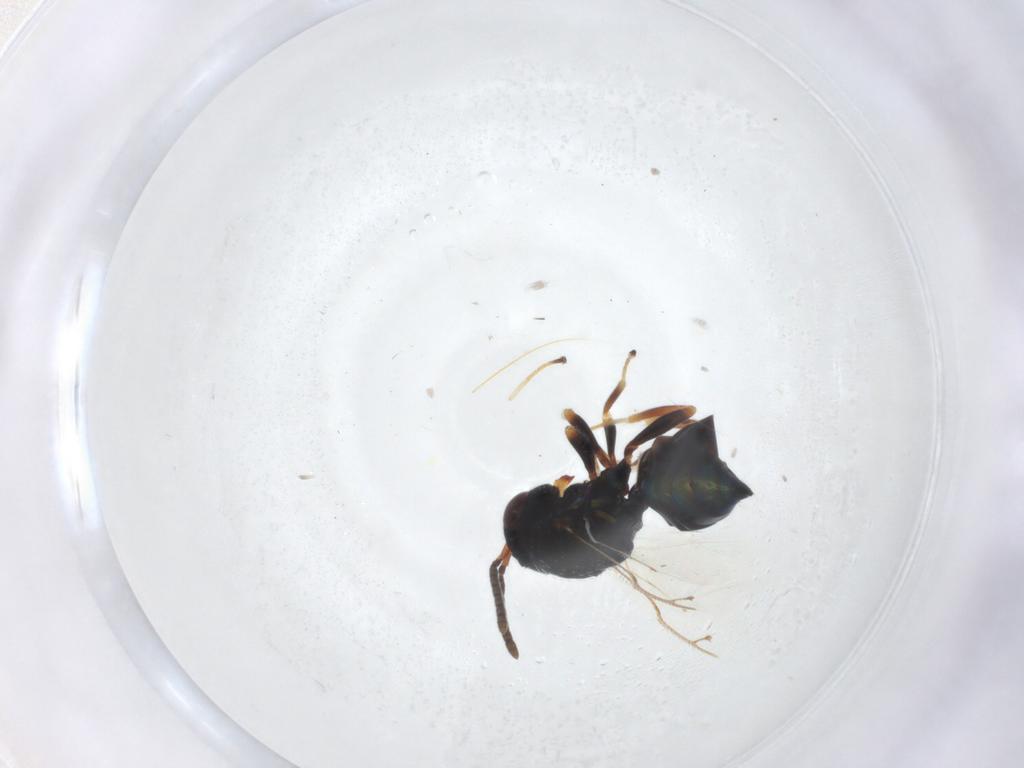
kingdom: Animalia
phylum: Arthropoda
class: Insecta
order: Hymenoptera
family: Pteromalidae
